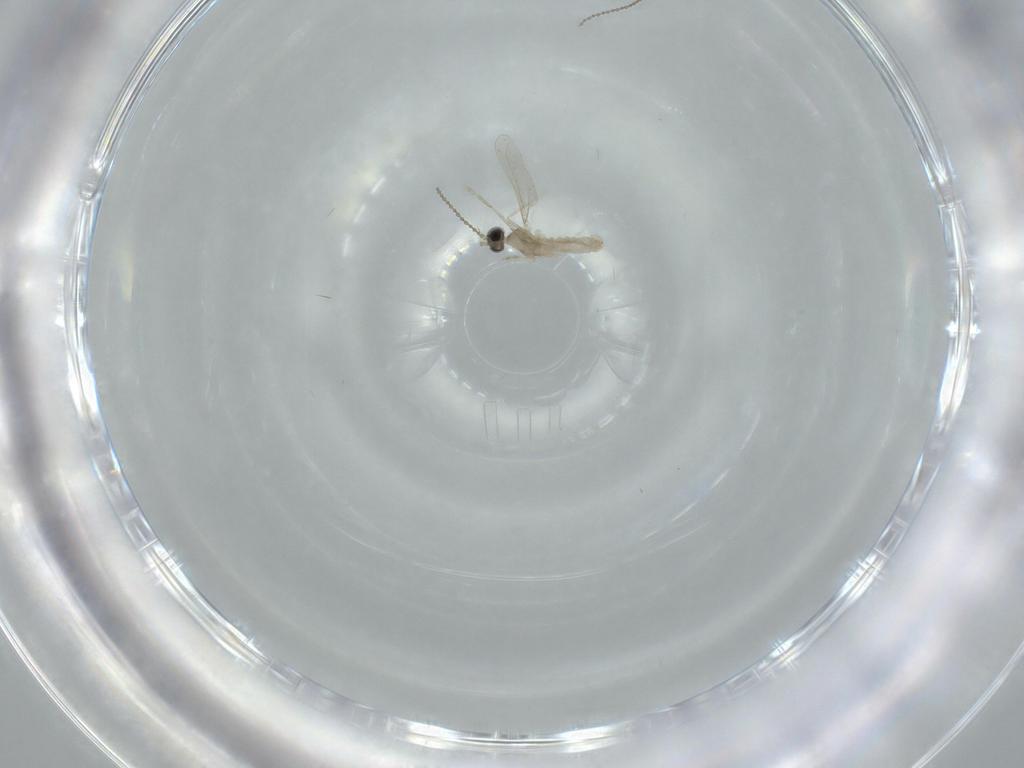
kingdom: Animalia
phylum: Arthropoda
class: Insecta
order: Diptera
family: Cecidomyiidae
